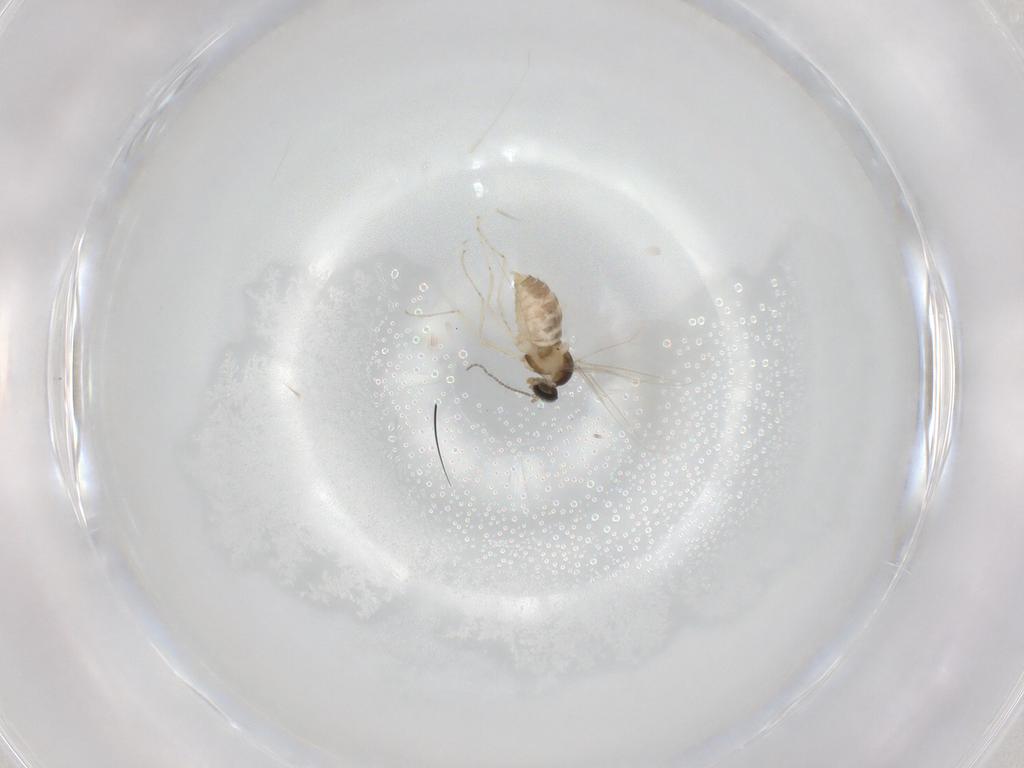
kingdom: Animalia
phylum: Arthropoda
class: Insecta
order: Diptera
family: Cecidomyiidae
